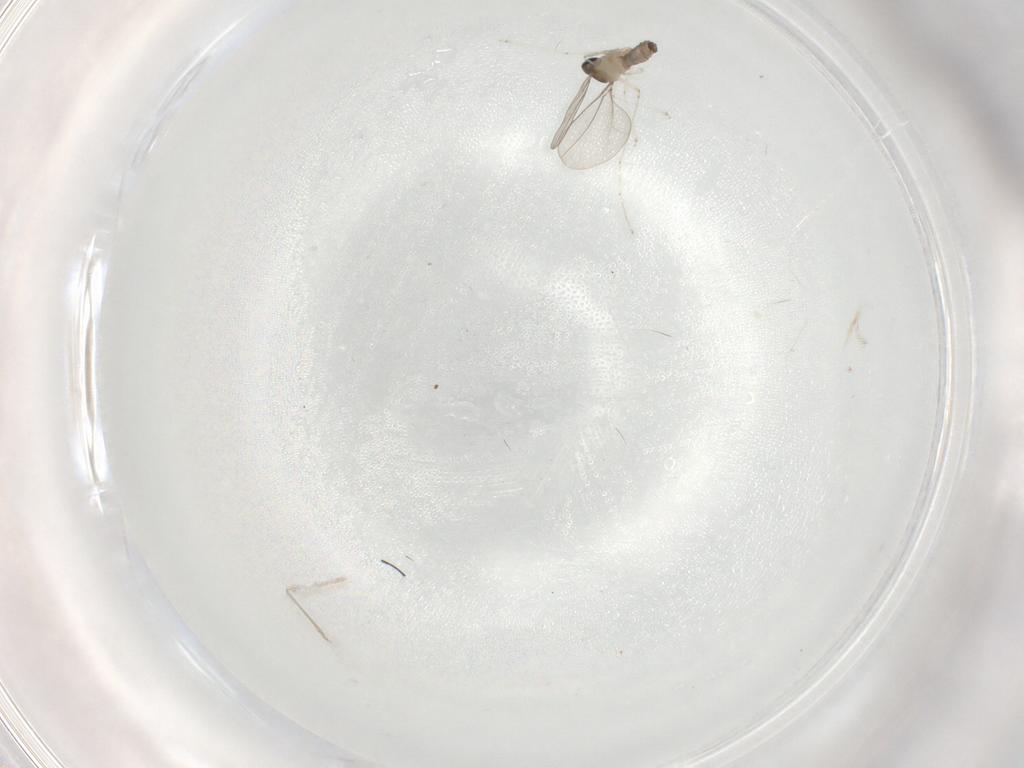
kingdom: Animalia
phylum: Arthropoda
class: Insecta
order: Diptera
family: Cecidomyiidae
